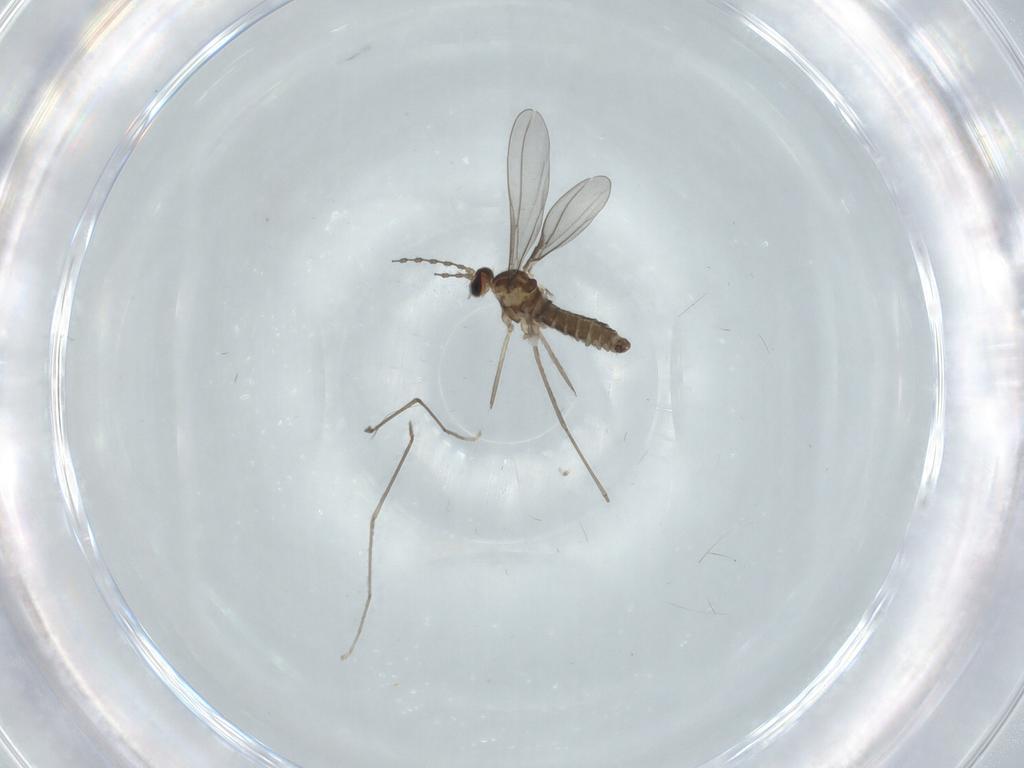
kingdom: Animalia
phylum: Arthropoda
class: Insecta
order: Diptera
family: Cecidomyiidae
